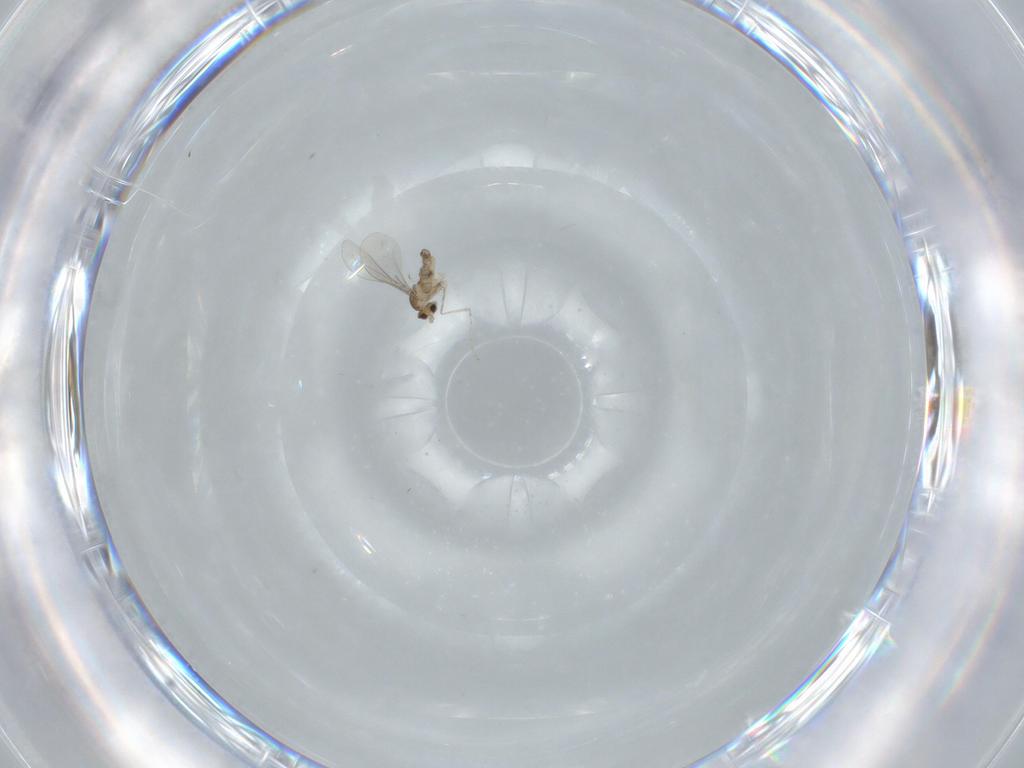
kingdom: Animalia
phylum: Arthropoda
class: Insecta
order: Diptera
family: Cecidomyiidae
